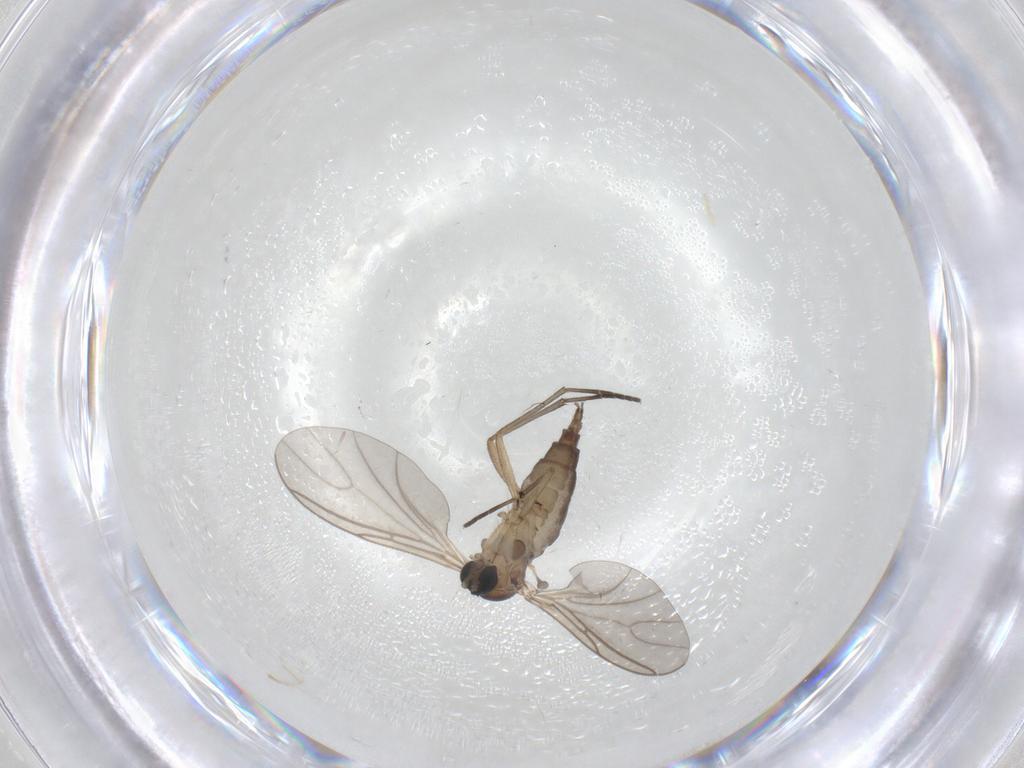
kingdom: Animalia
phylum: Arthropoda
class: Insecta
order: Diptera
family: Sciaridae
